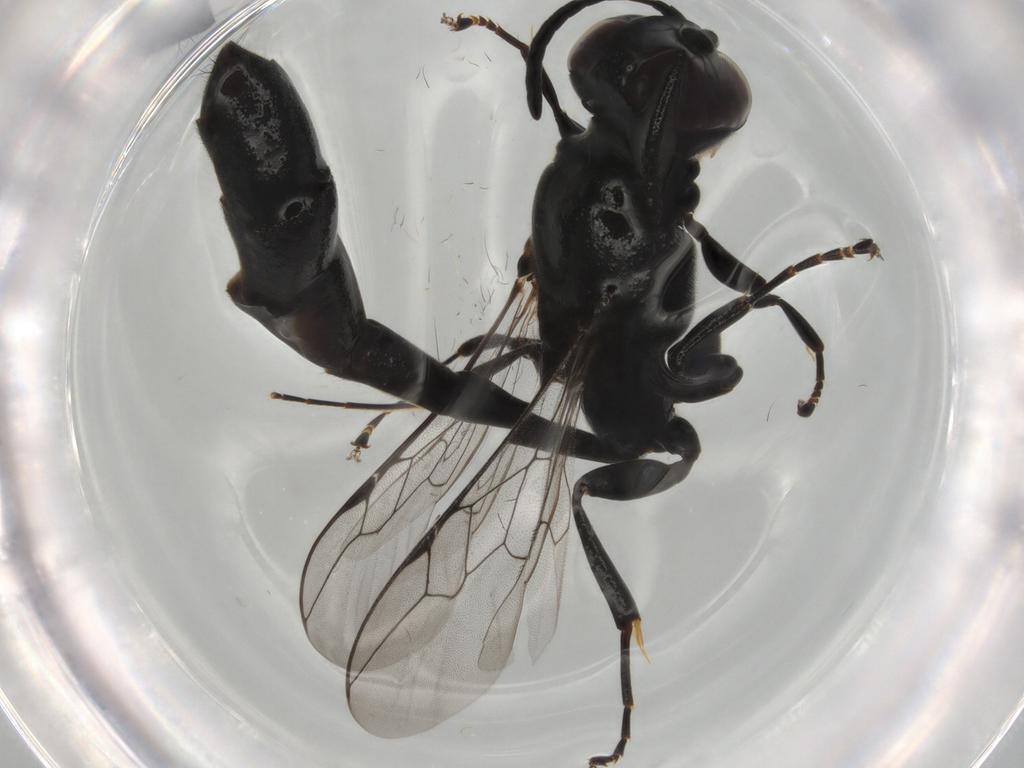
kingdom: Animalia
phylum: Arthropoda
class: Insecta
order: Hymenoptera
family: Crabronidae
